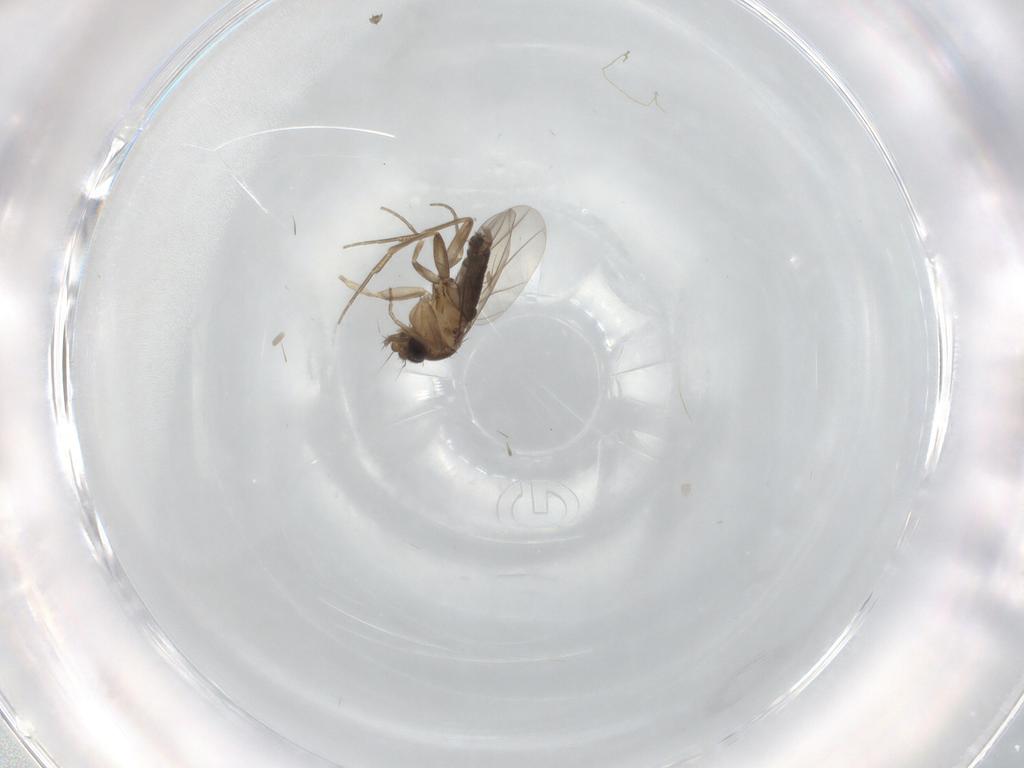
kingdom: Animalia
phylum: Arthropoda
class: Insecta
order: Diptera
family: Phoridae
